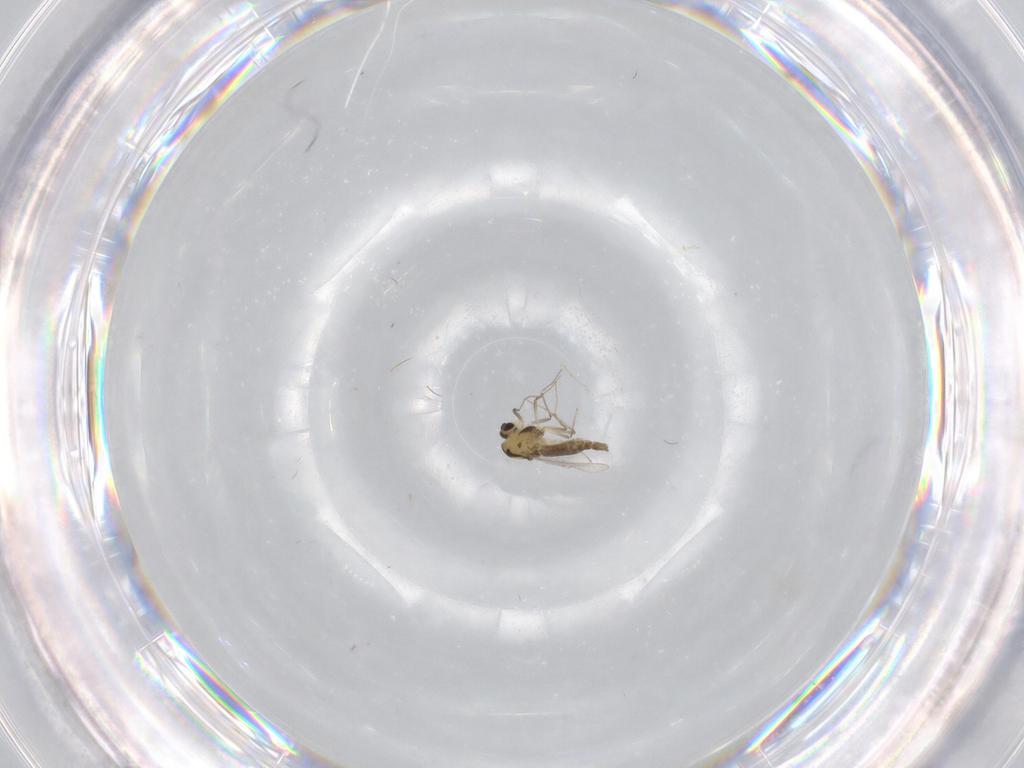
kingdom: Animalia
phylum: Arthropoda
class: Insecta
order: Diptera
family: Chironomidae
